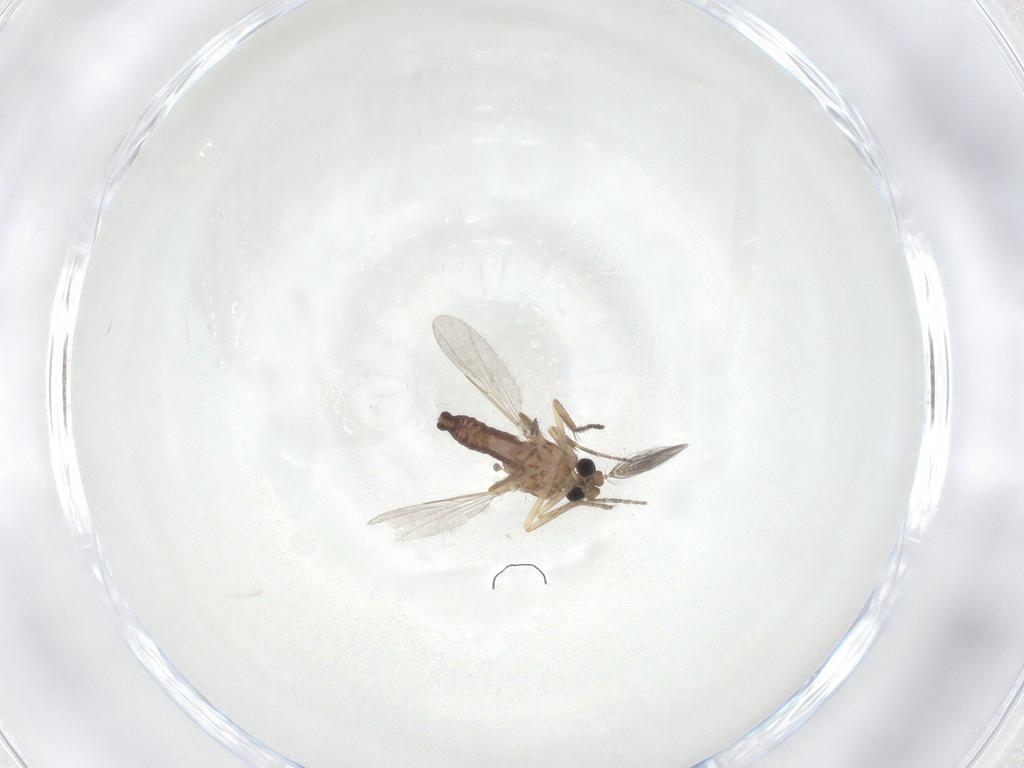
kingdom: Animalia
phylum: Arthropoda
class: Insecta
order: Diptera
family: Ceratopogonidae
